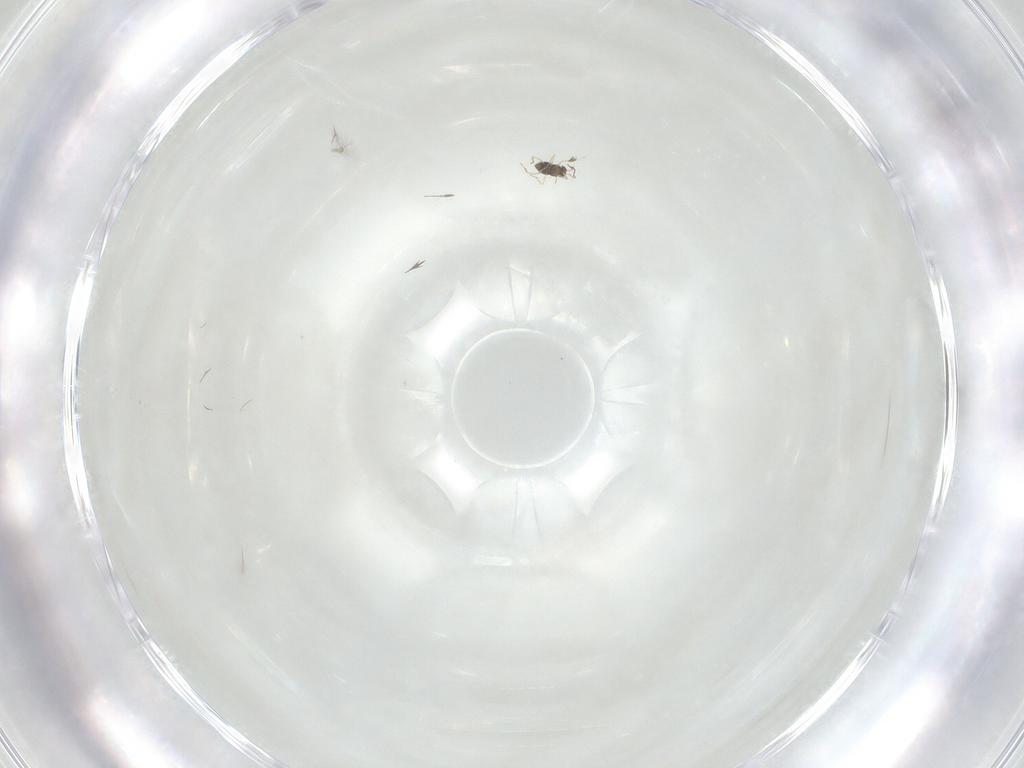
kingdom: Animalia
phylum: Arthropoda
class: Insecta
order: Diptera
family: Psychodidae
